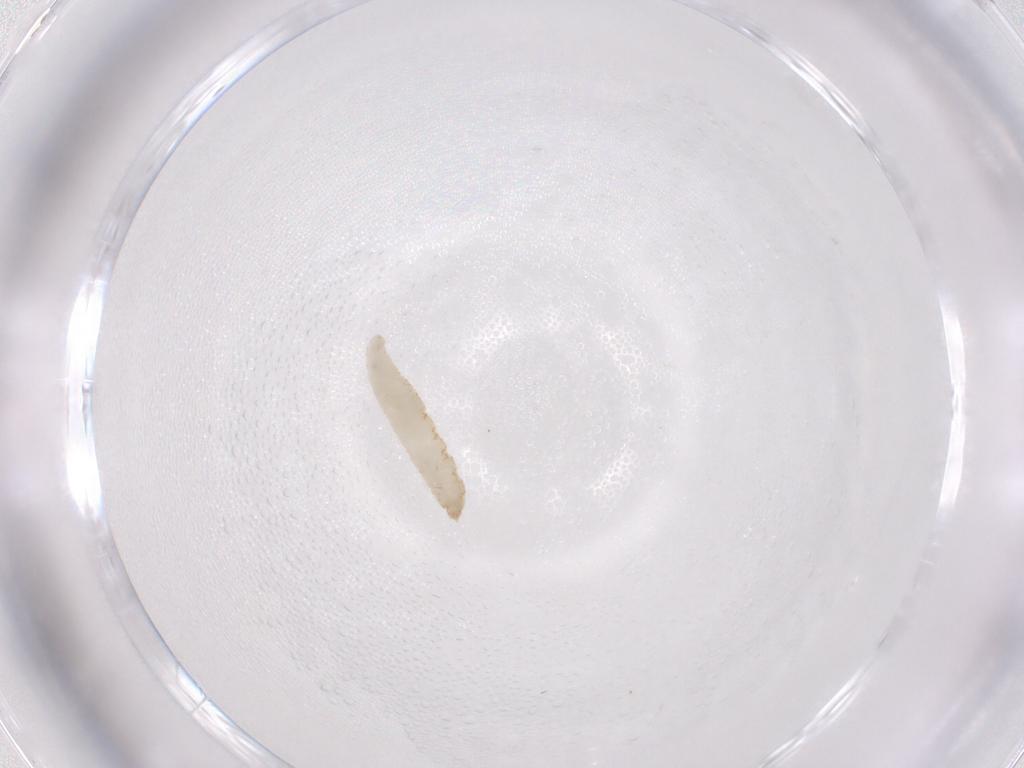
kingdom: Animalia
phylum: Arthropoda
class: Insecta
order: Diptera
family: Phoridae
